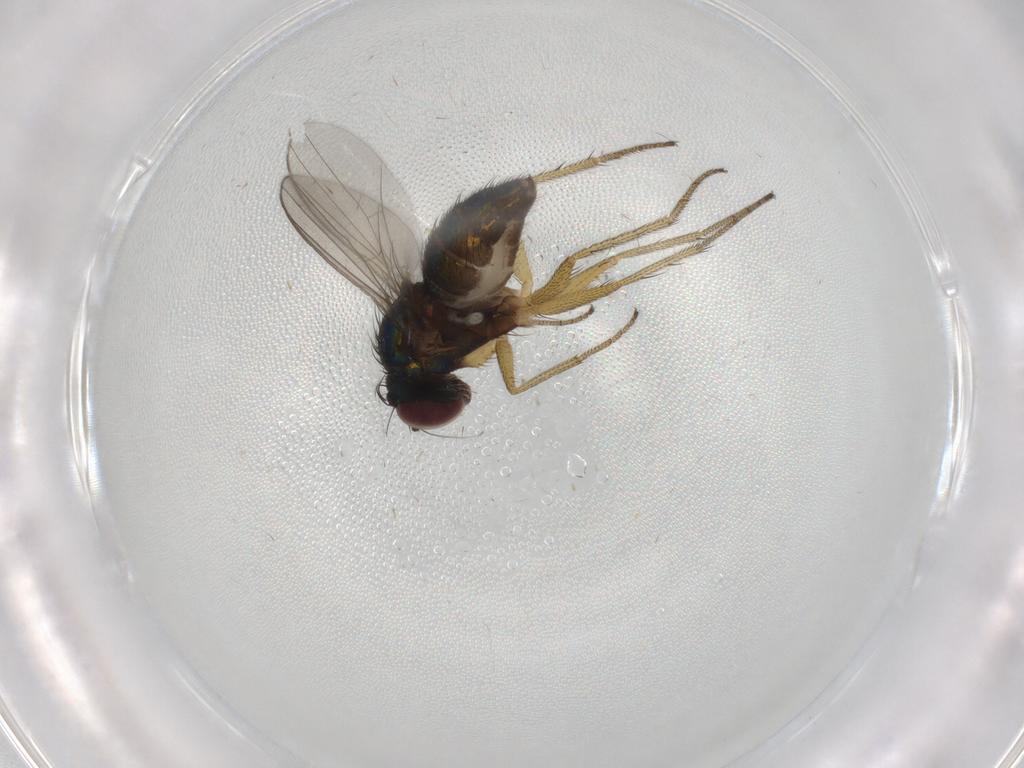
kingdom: Animalia
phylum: Arthropoda
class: Insecta
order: Diptera
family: Dolichopodidae
